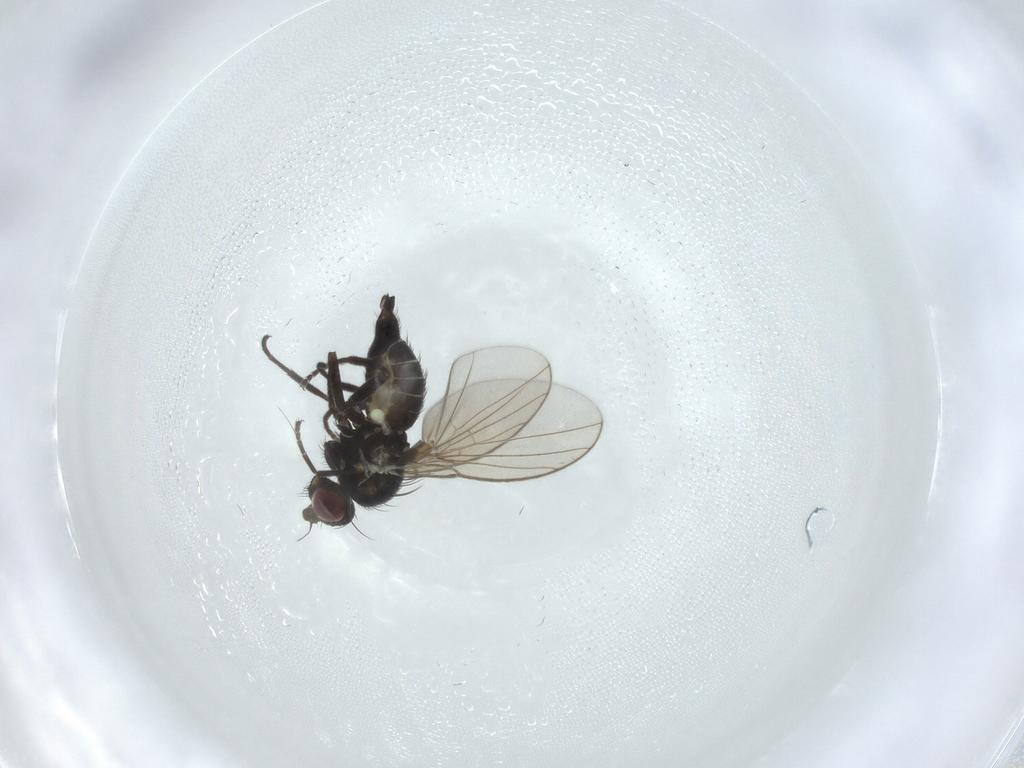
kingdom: Animalia
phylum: Arthropoda
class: Insecta
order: Diptera
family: Agromyzidae
